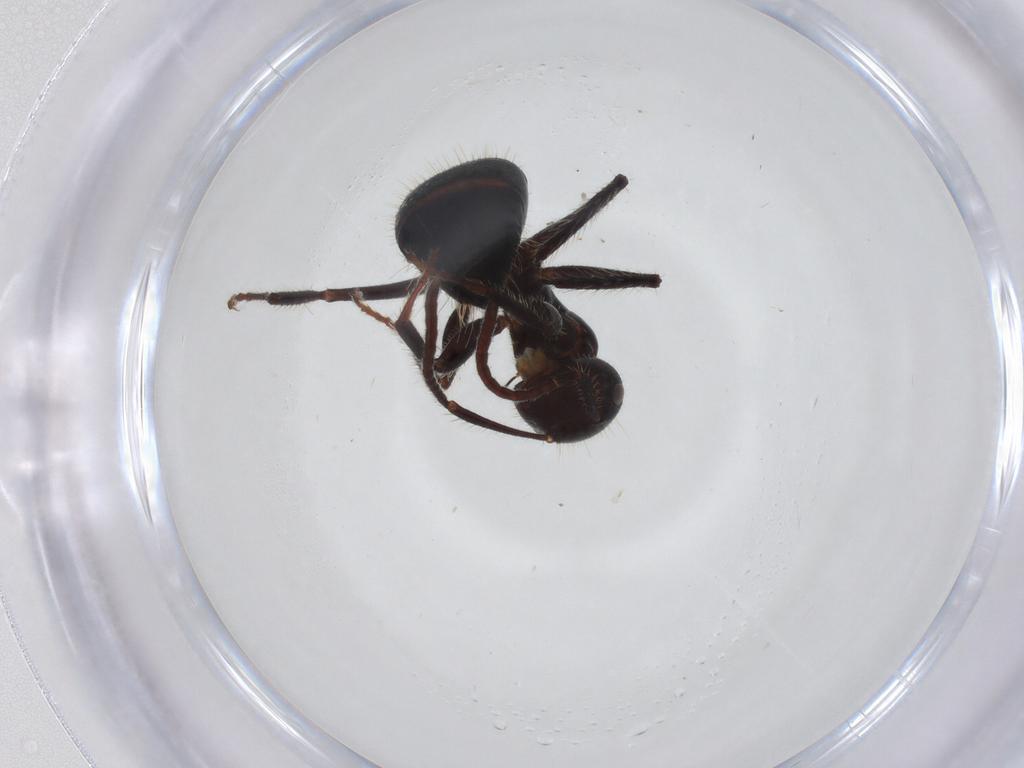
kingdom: Animalia
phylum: Arthropoda
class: Insecta
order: Hymenoptera
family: Formicidae
